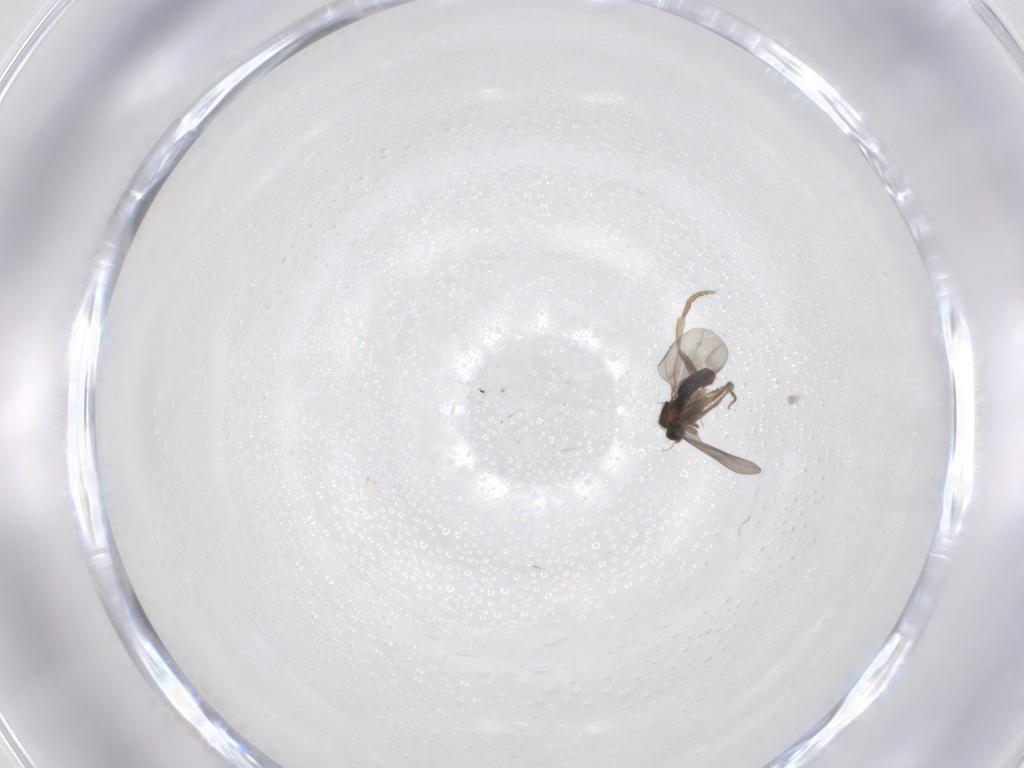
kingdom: Animalia
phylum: Arthropoda
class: Insecta
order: Diptera
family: Chironomidae
